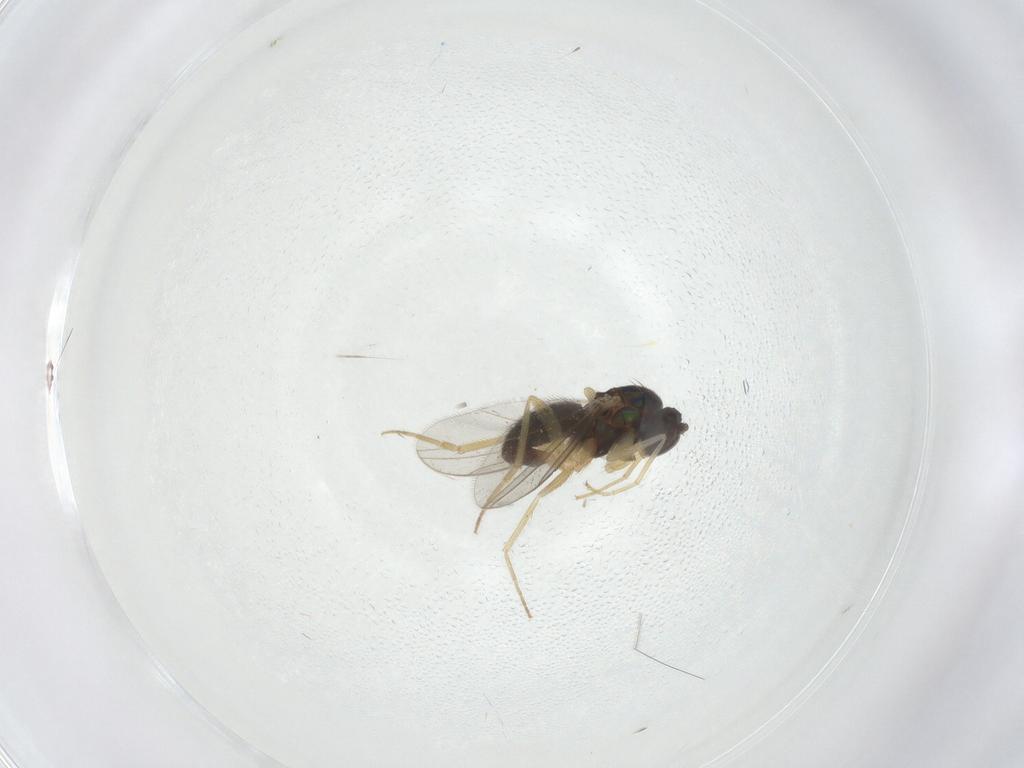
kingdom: Animalia
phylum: Arthropoda
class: Insecta
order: Diptera
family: Dolichopodidae
